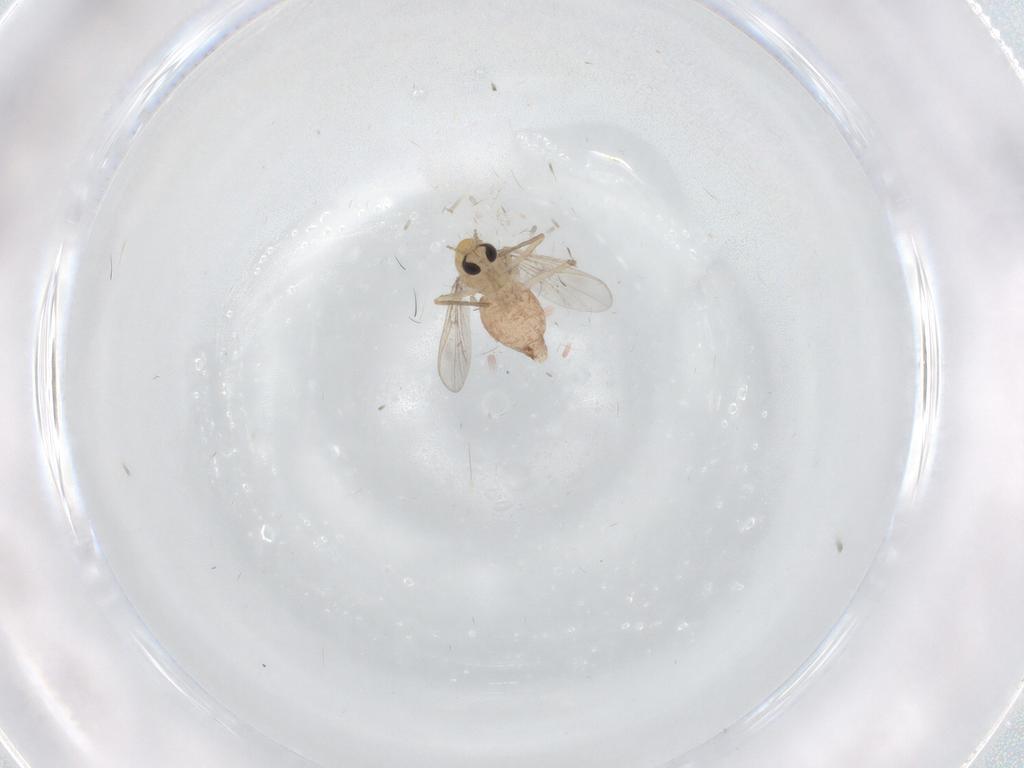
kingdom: Animalia
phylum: Arthropoda
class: Insecta
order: Diptera
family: Chironomidae
